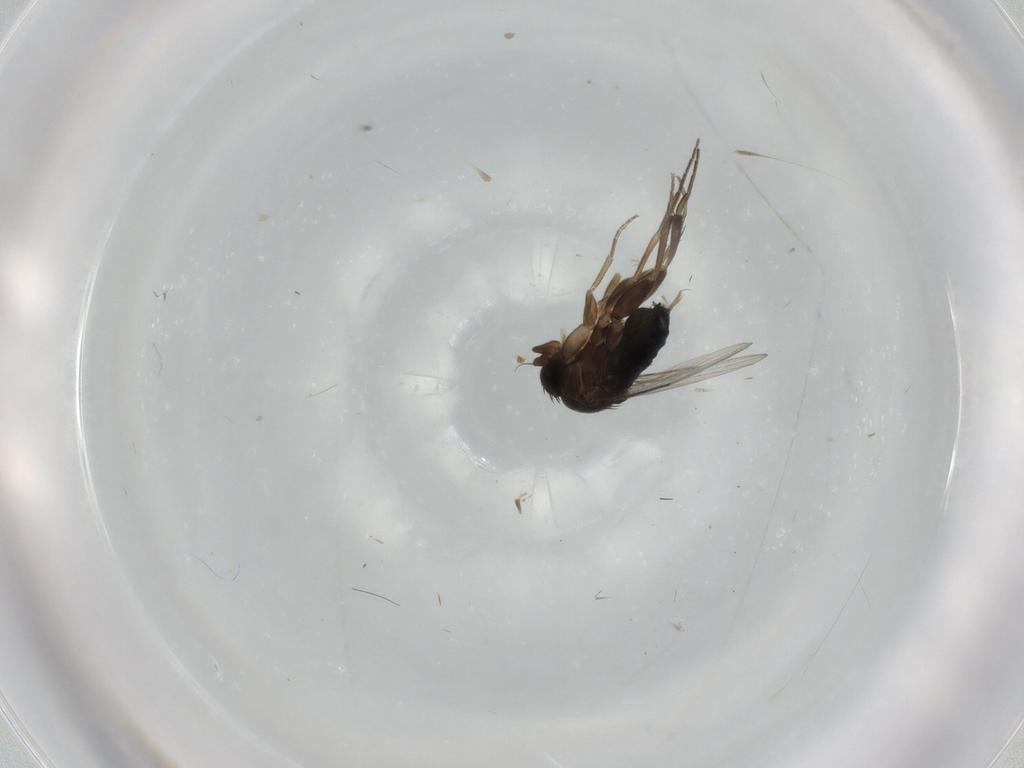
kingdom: Animalia
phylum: Arthropoda
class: Insecta
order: Diptera
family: Phoridae
